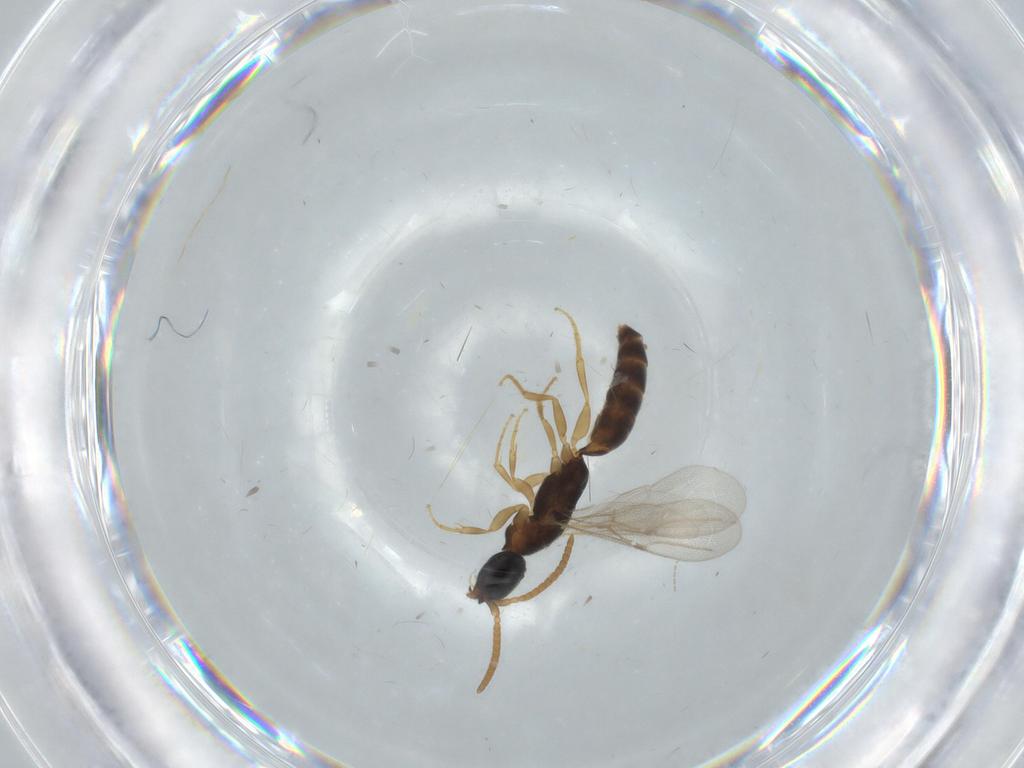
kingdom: Animalia
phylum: Arthropoda
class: Insecta
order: Hymenoptera
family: Bethylidae
